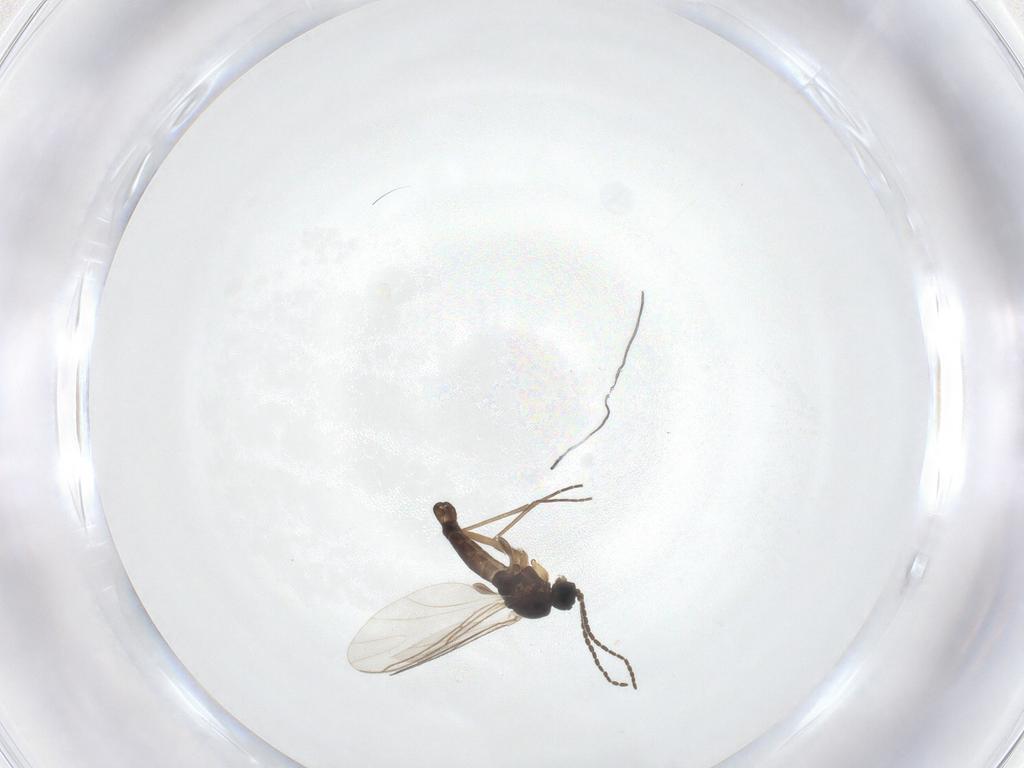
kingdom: Animalia
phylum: Arthropoda
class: Insecta
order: Diptera
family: Sciaridae
